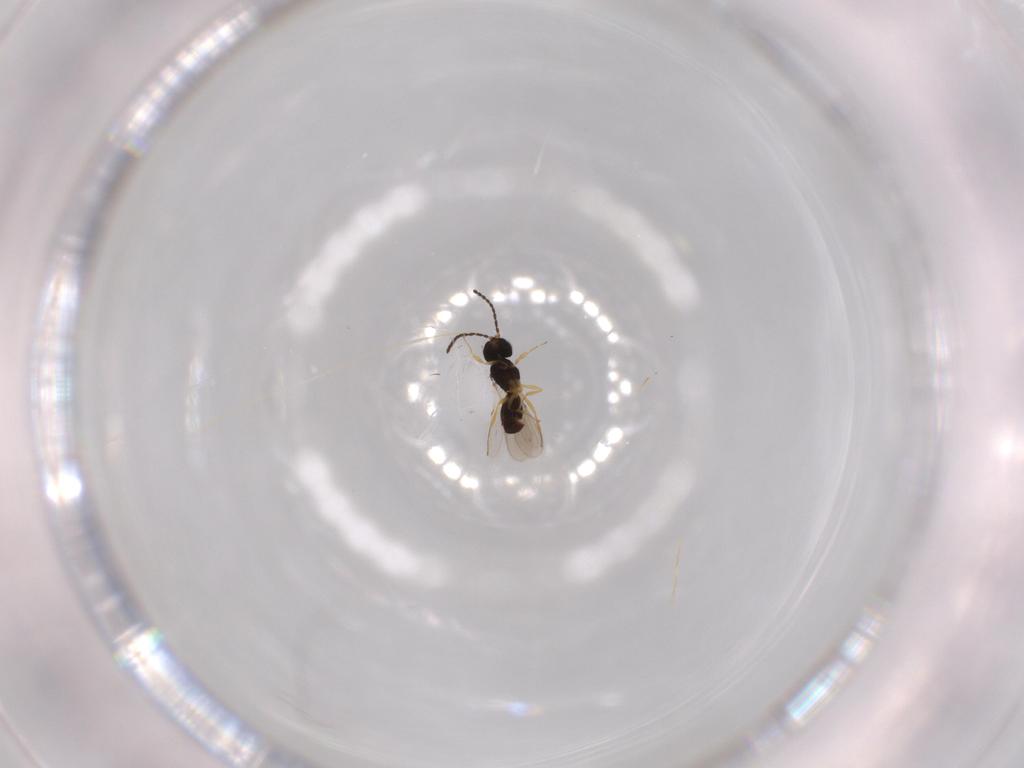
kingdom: Animalia
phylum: Arthropoda
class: Insecta
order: Hymenoptera
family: Scelionidae
